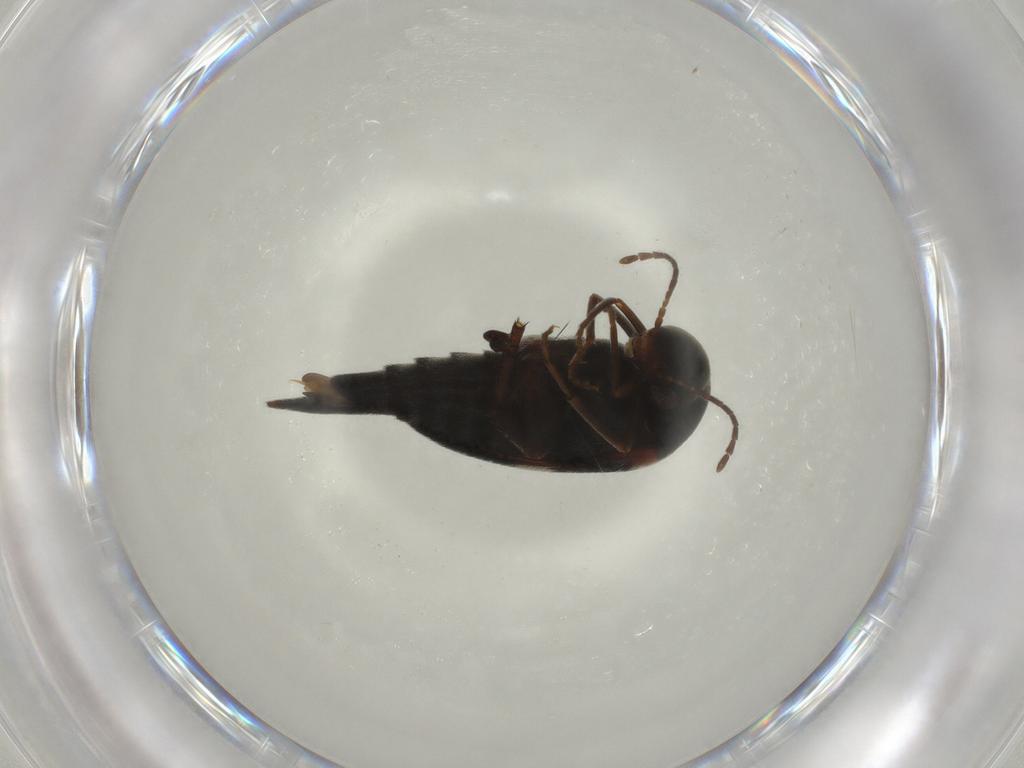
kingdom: Animalia
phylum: Arthropoda
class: Insecta
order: Coleoptera
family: Mordellidae
